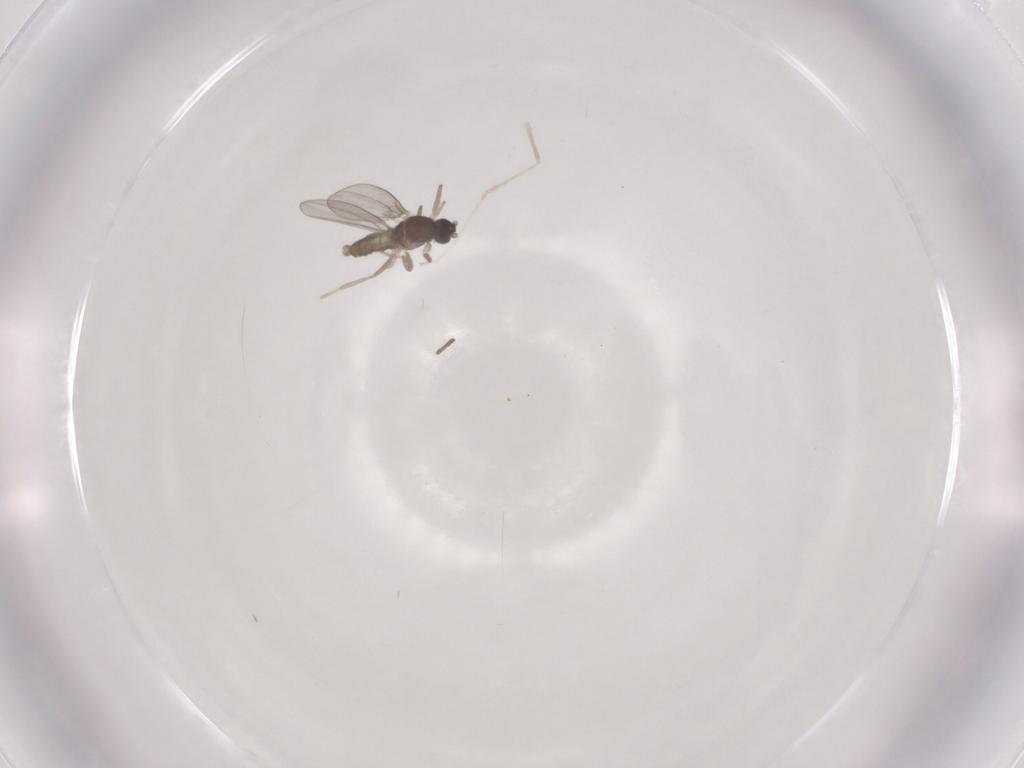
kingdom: Animalia
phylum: Arthropoda
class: Insecta
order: Diptera
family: Cecidomyiidae
